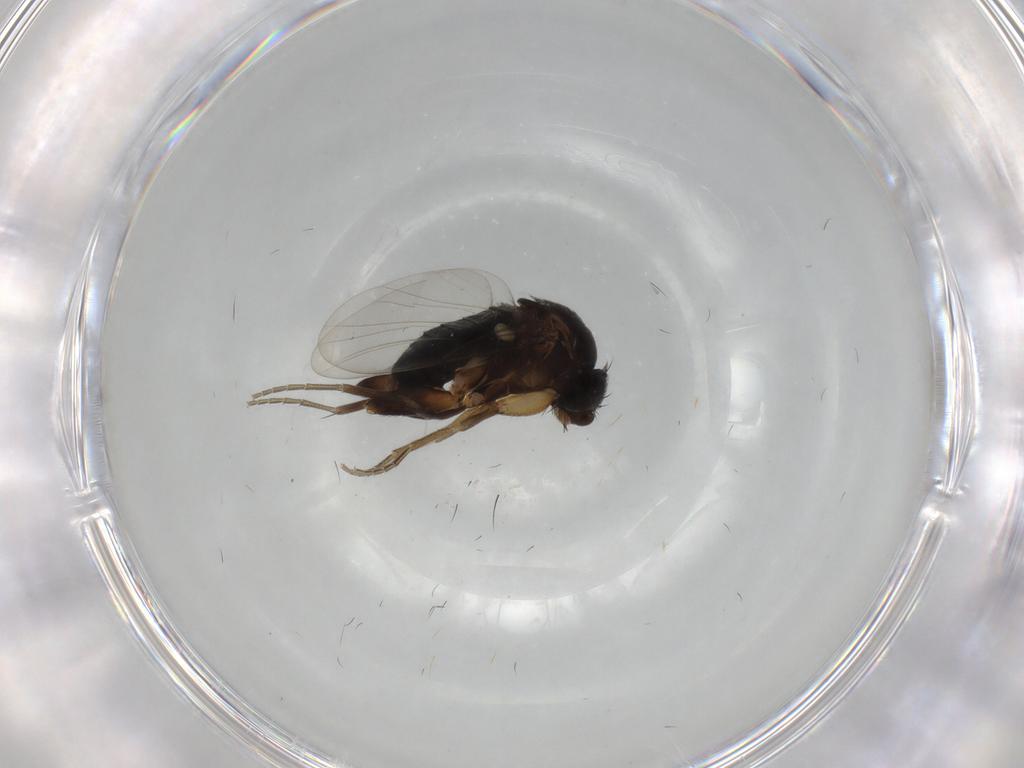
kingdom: Animalia
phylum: Arthropoda
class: Insecta
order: Diptera
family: Phoridae
